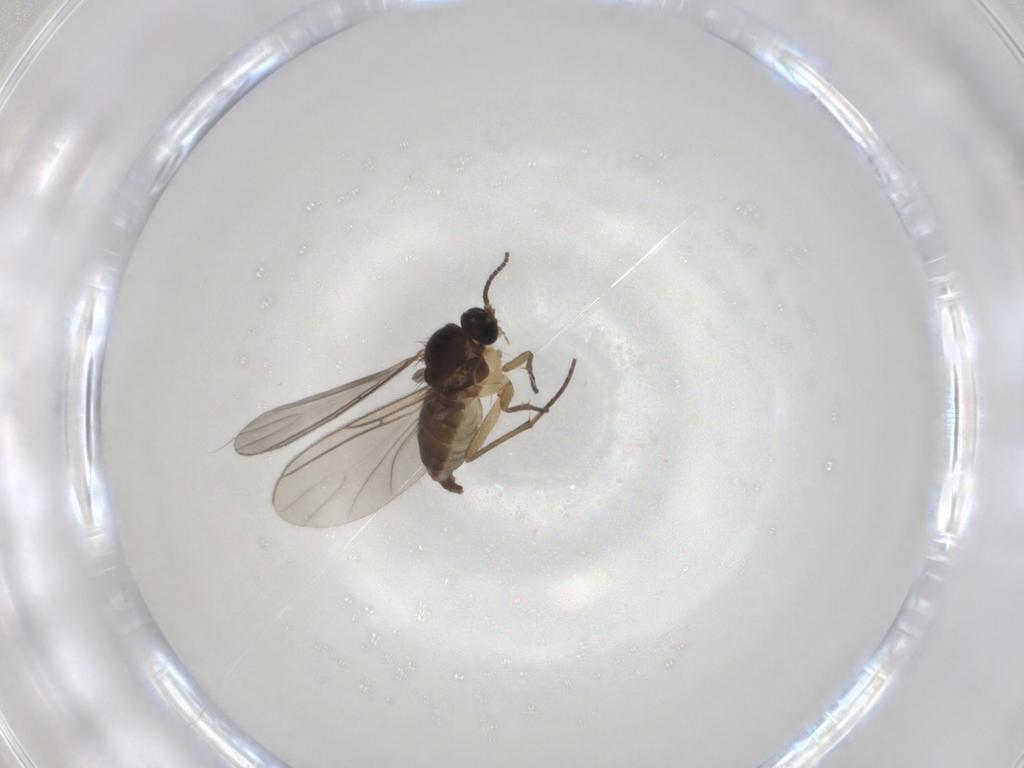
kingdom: Animalia
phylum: Arthropoda
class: Insecta
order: Diptera
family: Sciaridae
